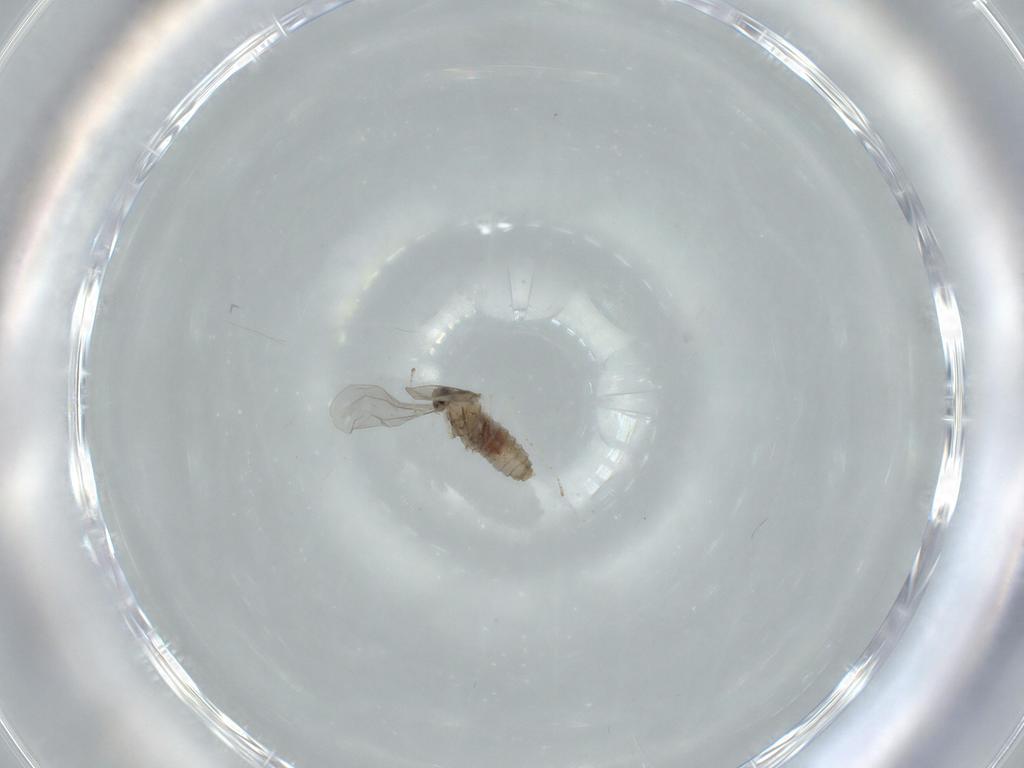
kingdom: Animalia
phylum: Arthropoda
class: Insecta
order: Diptera
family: Cecidomyiidae
